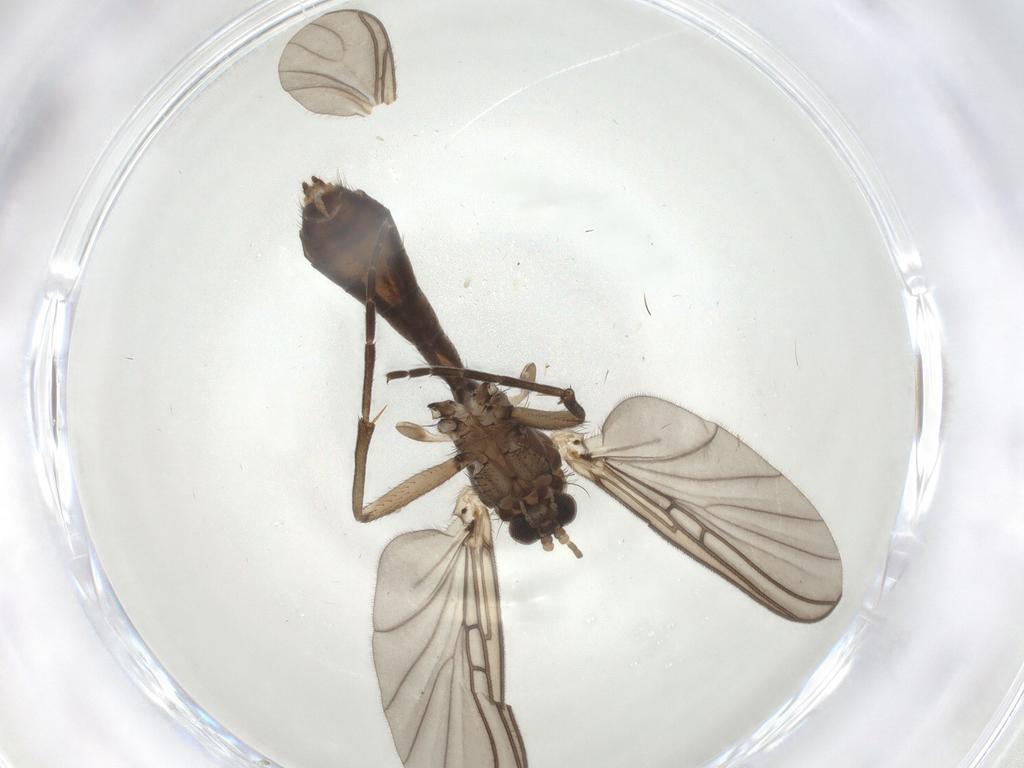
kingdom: Animalia
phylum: Arthropoda
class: Insecta
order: Diptera
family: Mycetophilidae
